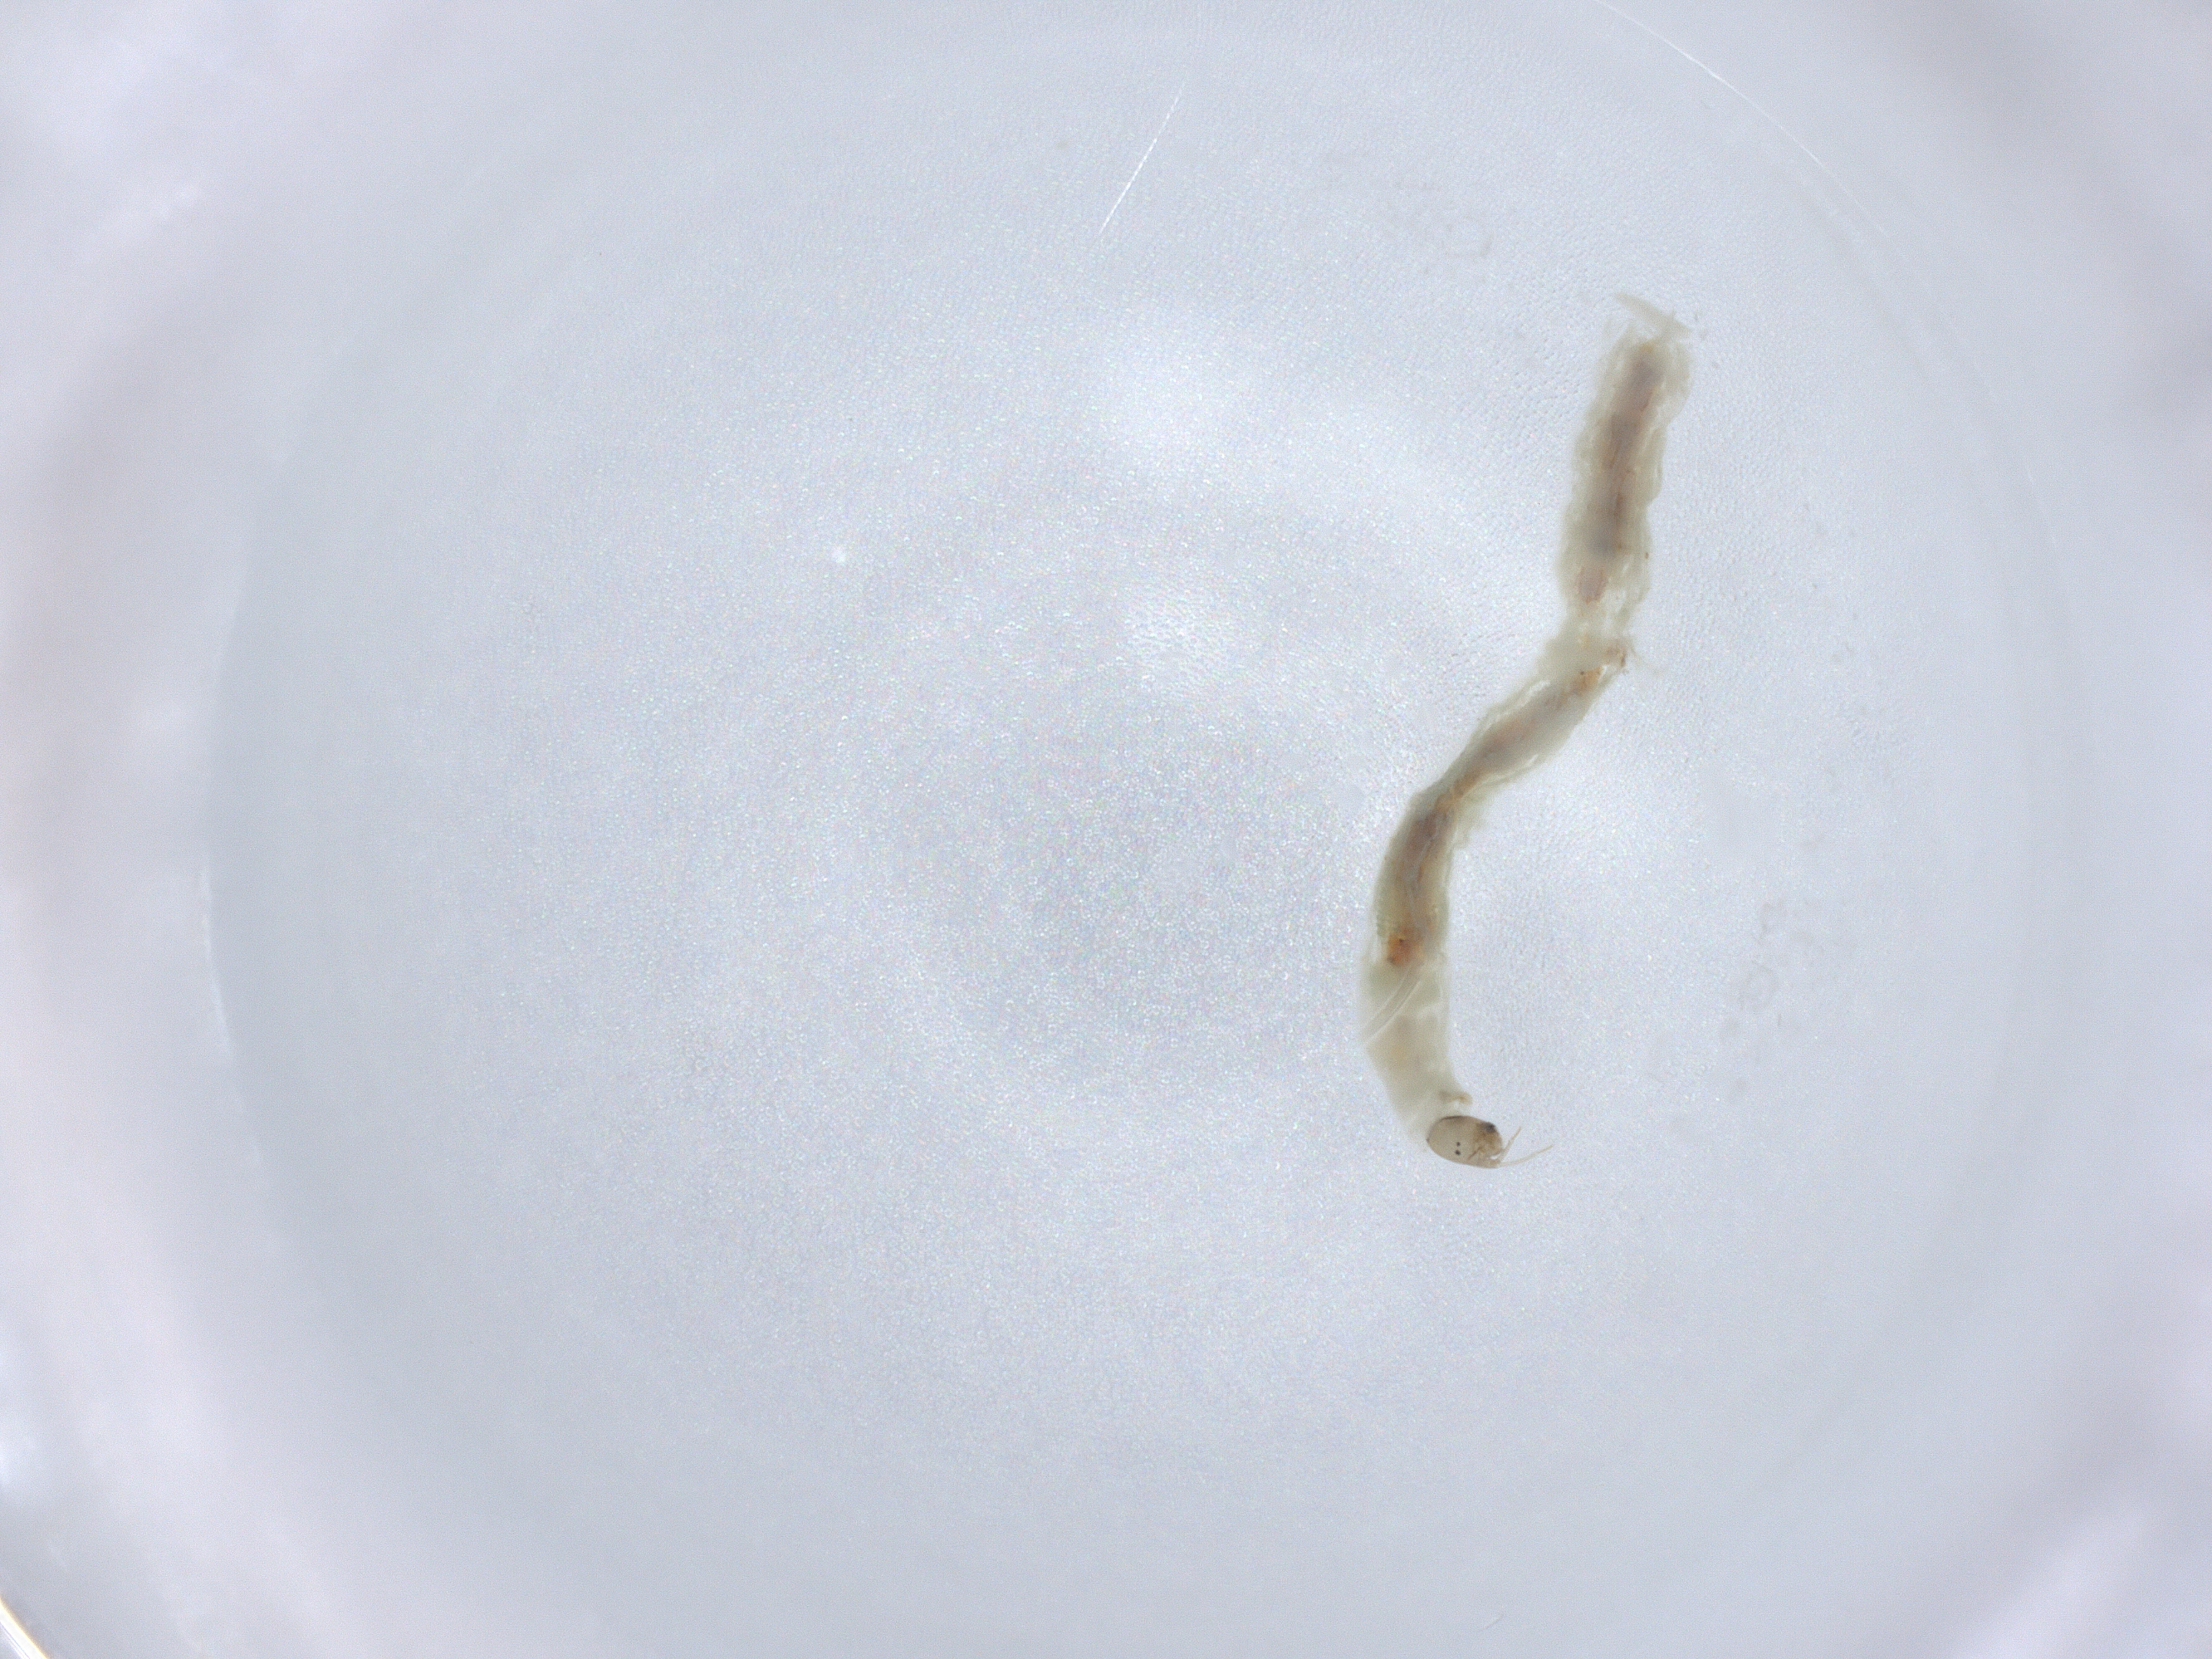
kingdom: Animalia
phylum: Arthropoda
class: Insecta
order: Diptera
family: Chironomidae
